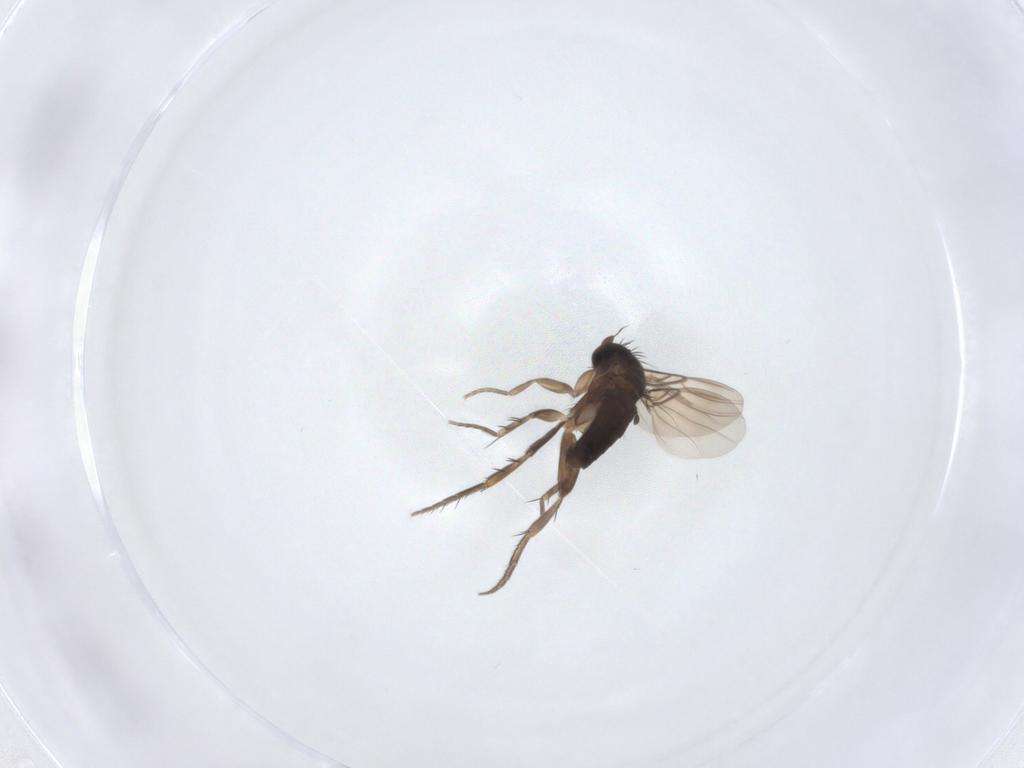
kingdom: Animalia
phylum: Arthropoda
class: Insecta
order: Diptera
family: Phoridae
